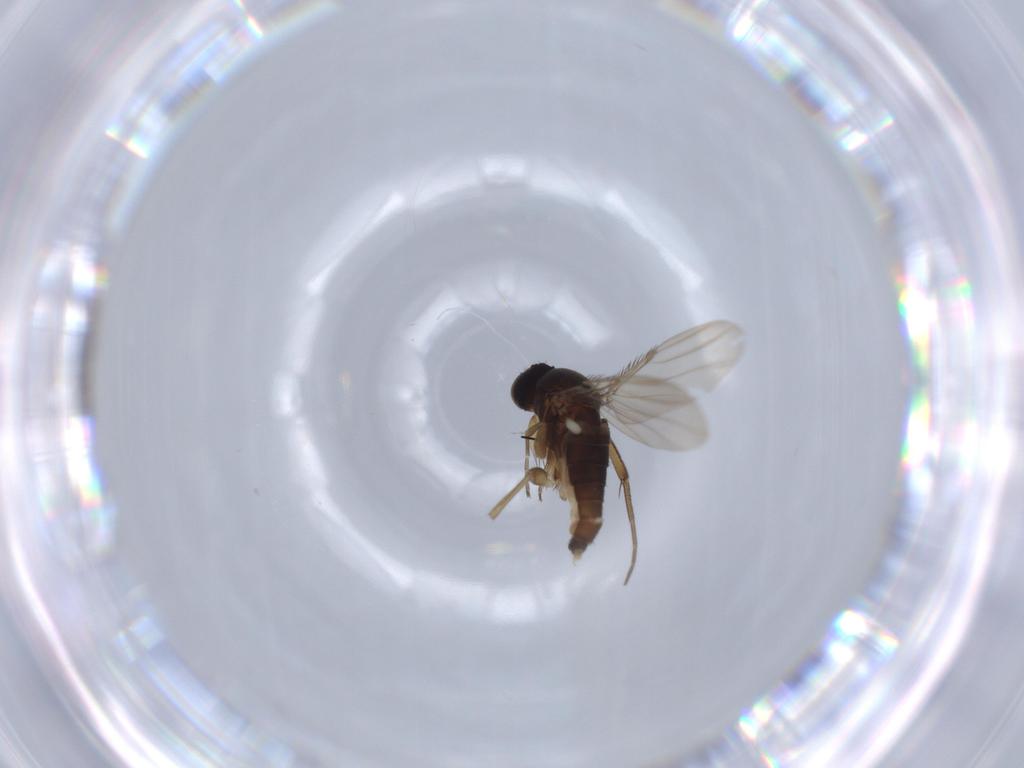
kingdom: Animalia
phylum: Arthropoda
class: Insecta
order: Diptera
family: Phoridae
